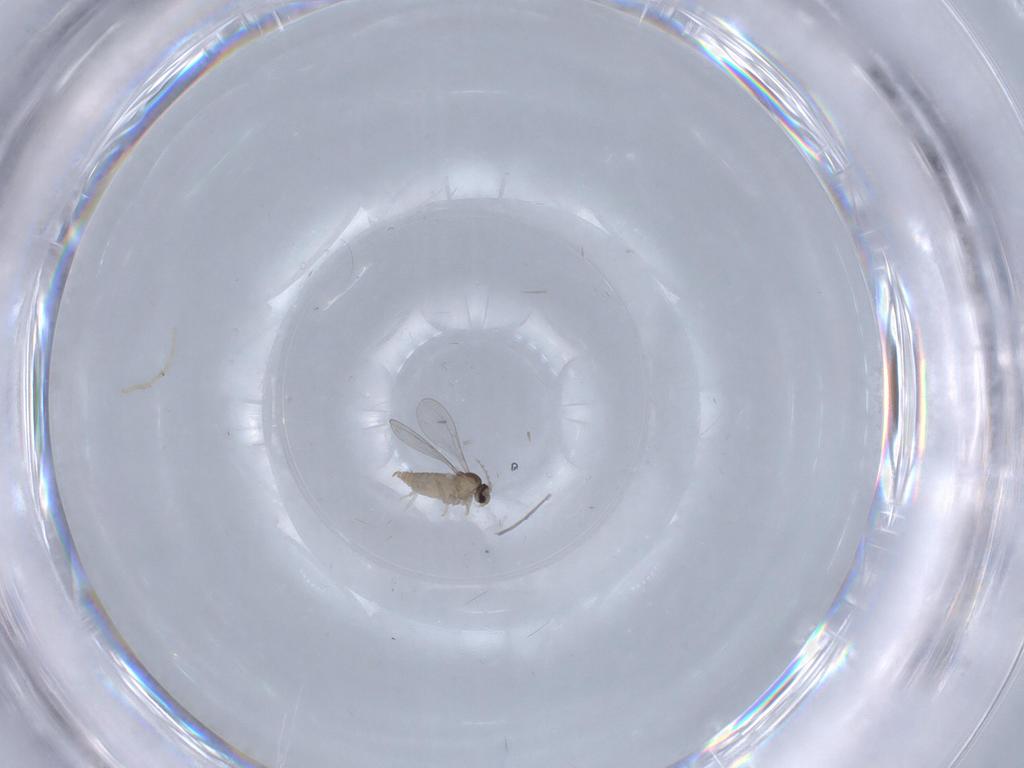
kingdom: Animalia
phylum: Arthropoda
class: Insecta
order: Diptera
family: Cecidomyiidae
